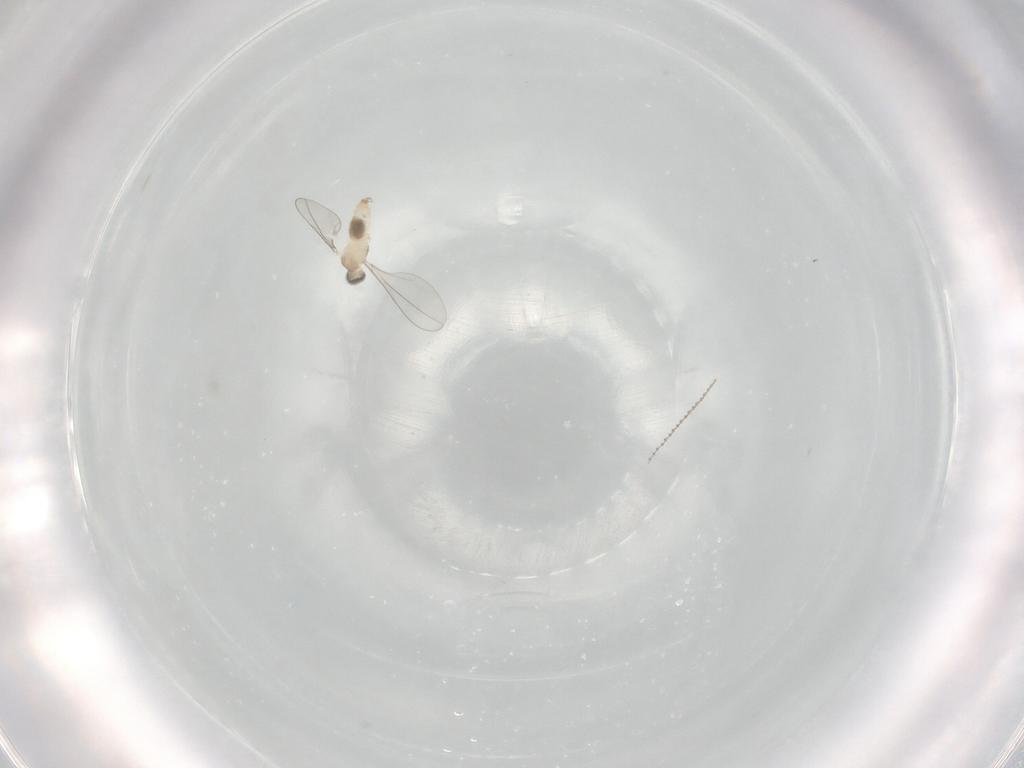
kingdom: Animalia
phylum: Arthropoda
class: Insecta
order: Diptera
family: Cecidomyiidae
